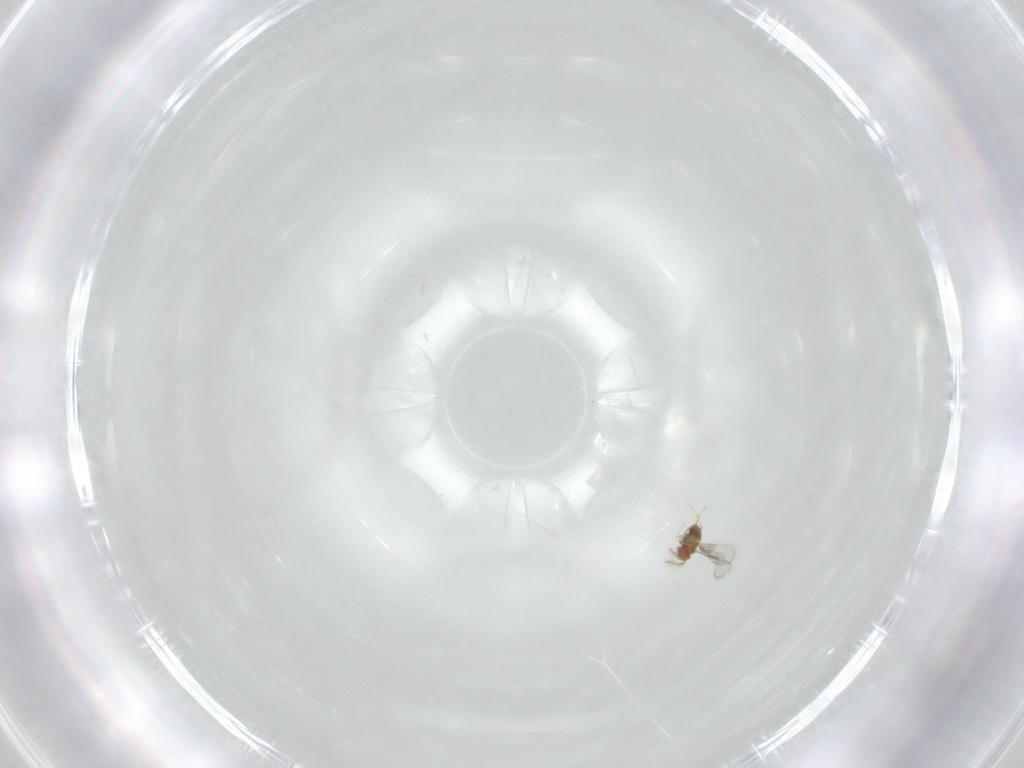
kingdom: Animalia
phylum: Arthropoda
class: Insecta
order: Hymenoptera
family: Trichogrammatidae
